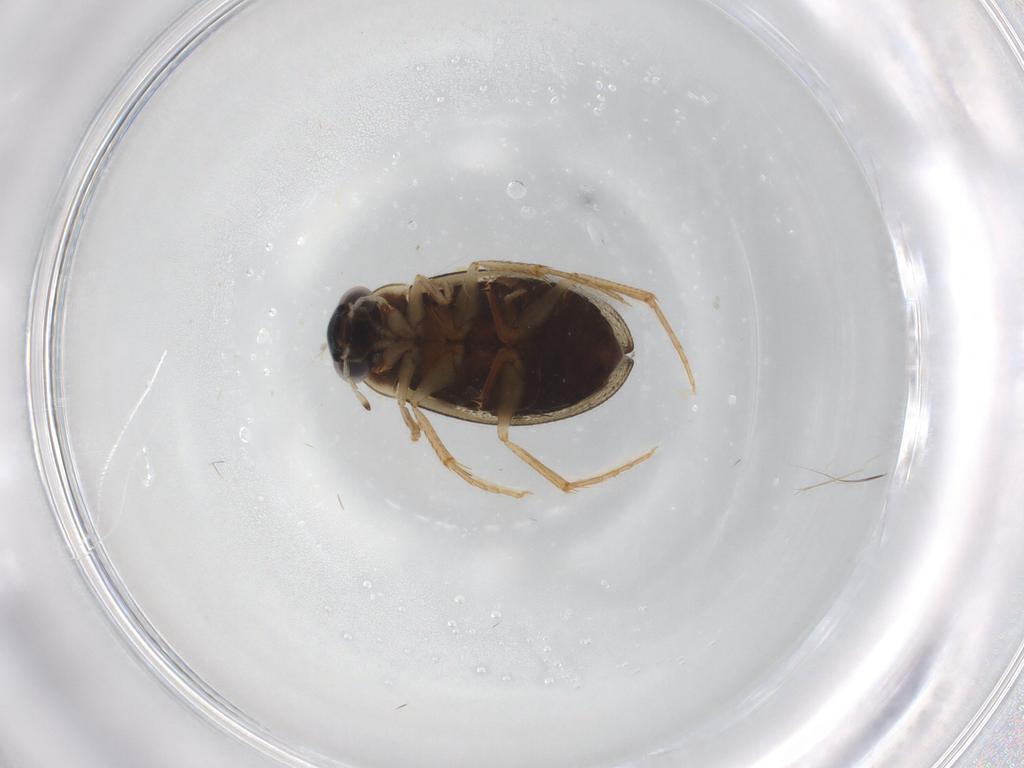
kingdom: Animalia
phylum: Arthropoda
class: Insecta
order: Coleoptera
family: Hydrophilidae
